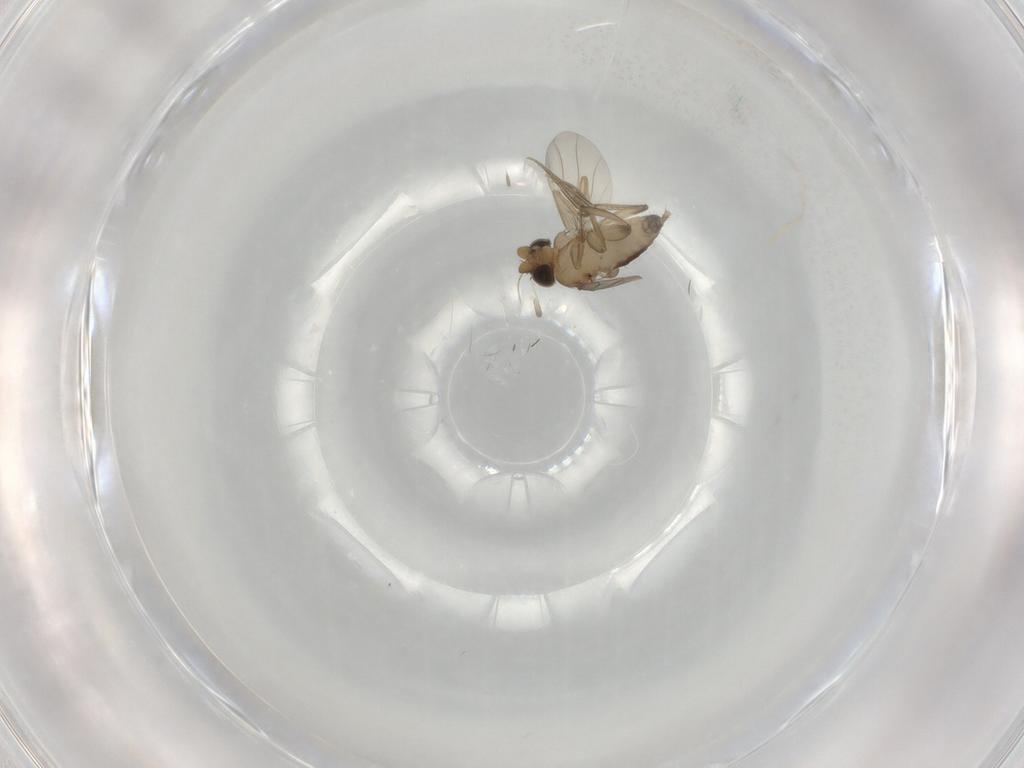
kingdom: Animalia
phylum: Arthropoda
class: Insecta
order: Diptera
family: Phoridae
